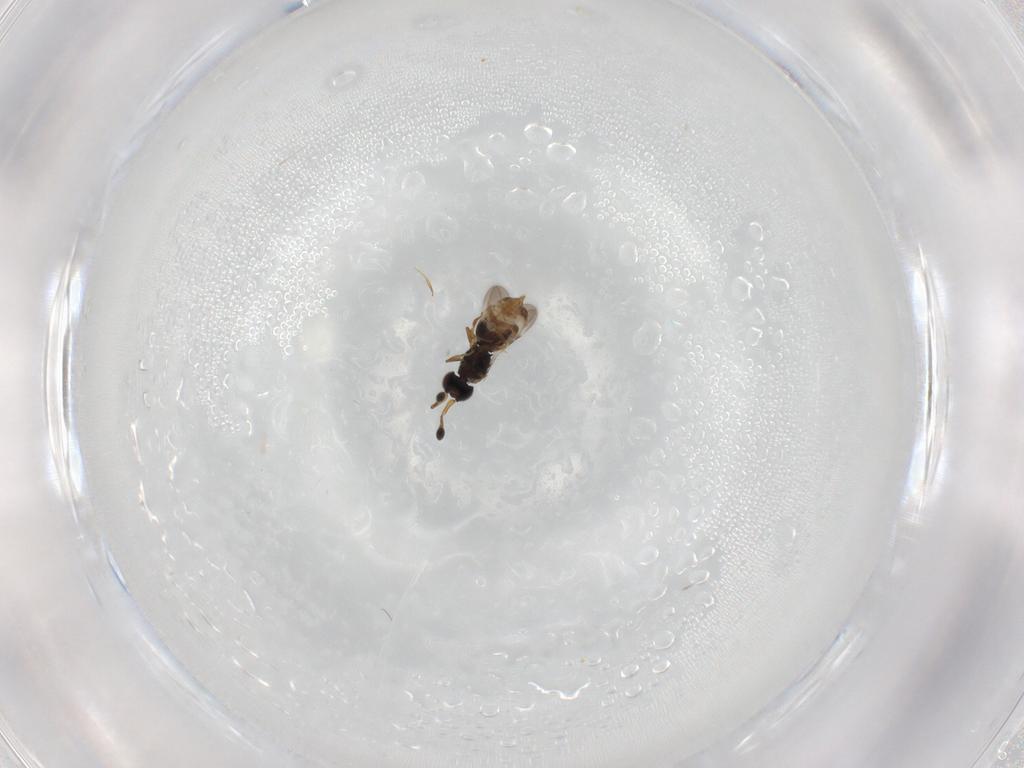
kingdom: Animalia
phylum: Arthropoda
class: Insecta
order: Hymenoptera
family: Ceraphronidae
